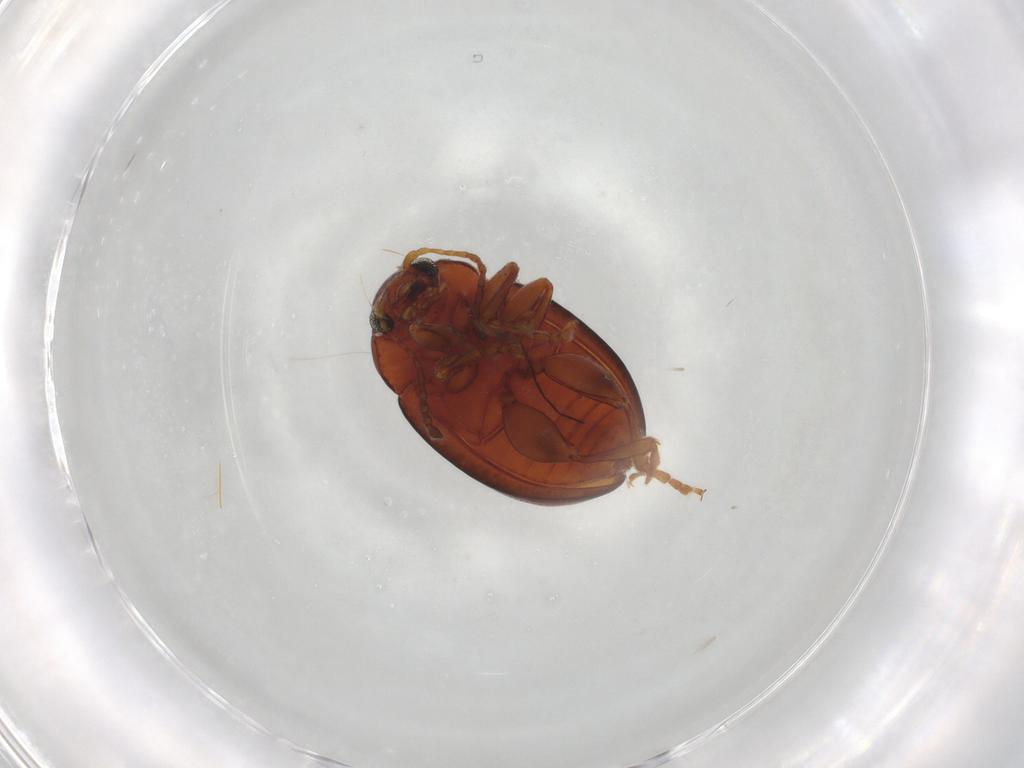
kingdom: Animalia
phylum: Arthropoda
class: Insecta
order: Coleoptera
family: Chrysomelidae
